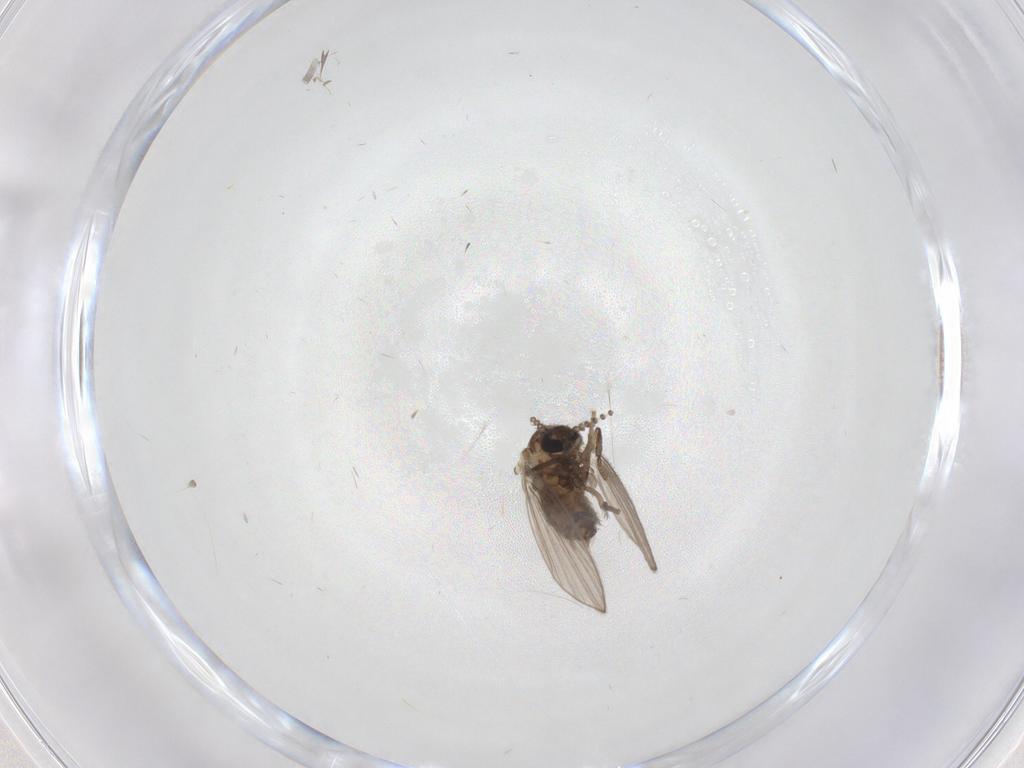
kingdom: Animalia
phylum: Arthropoda
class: Insecta
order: Diptera
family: Psychodidae
